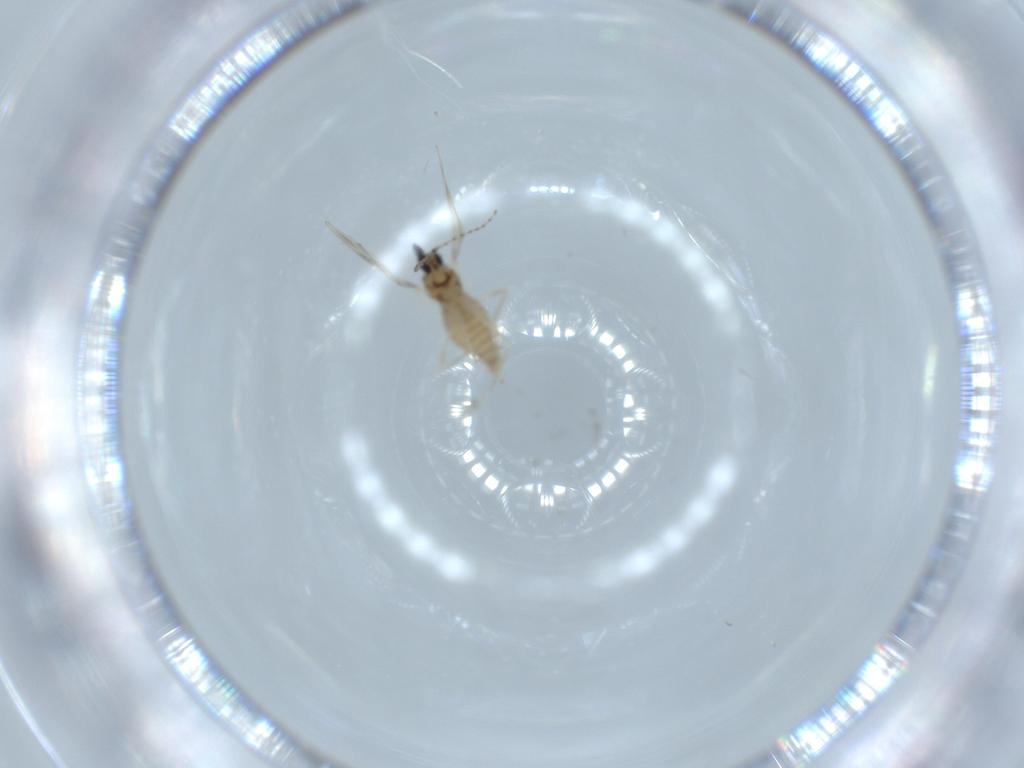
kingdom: Animalia
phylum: Arthropoda
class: Insecta
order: Diptera
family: Cecidomyiidae
